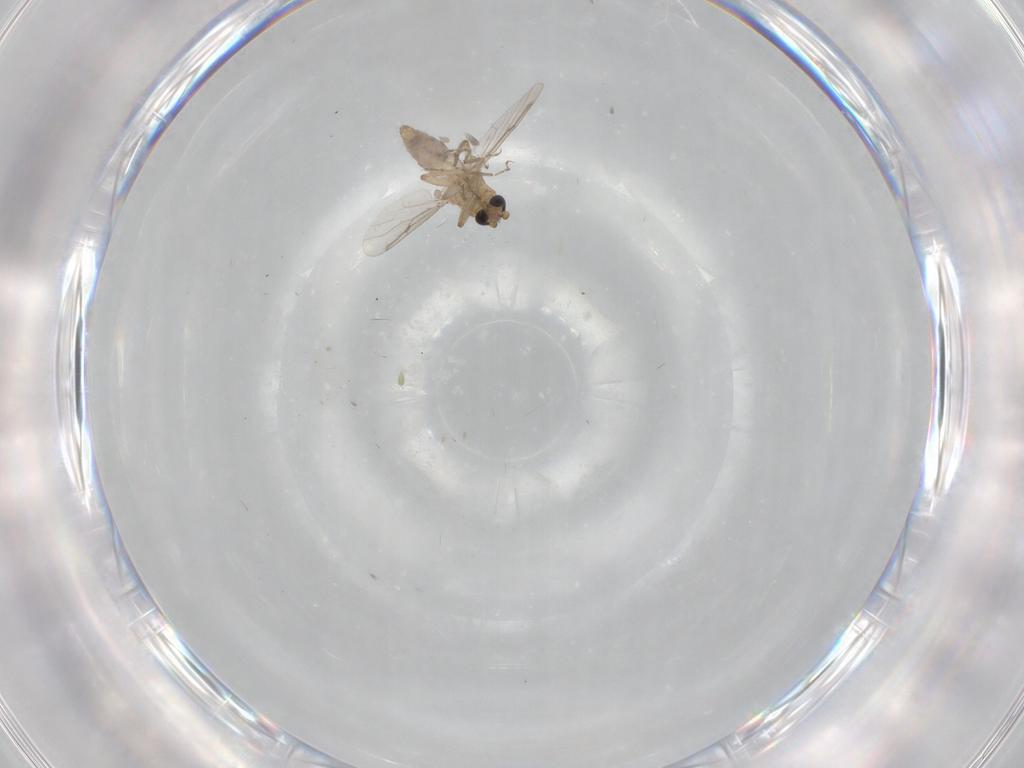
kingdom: Animalia
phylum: Arthropoda
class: Insecta
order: Diptera
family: Ceratopogonidae
